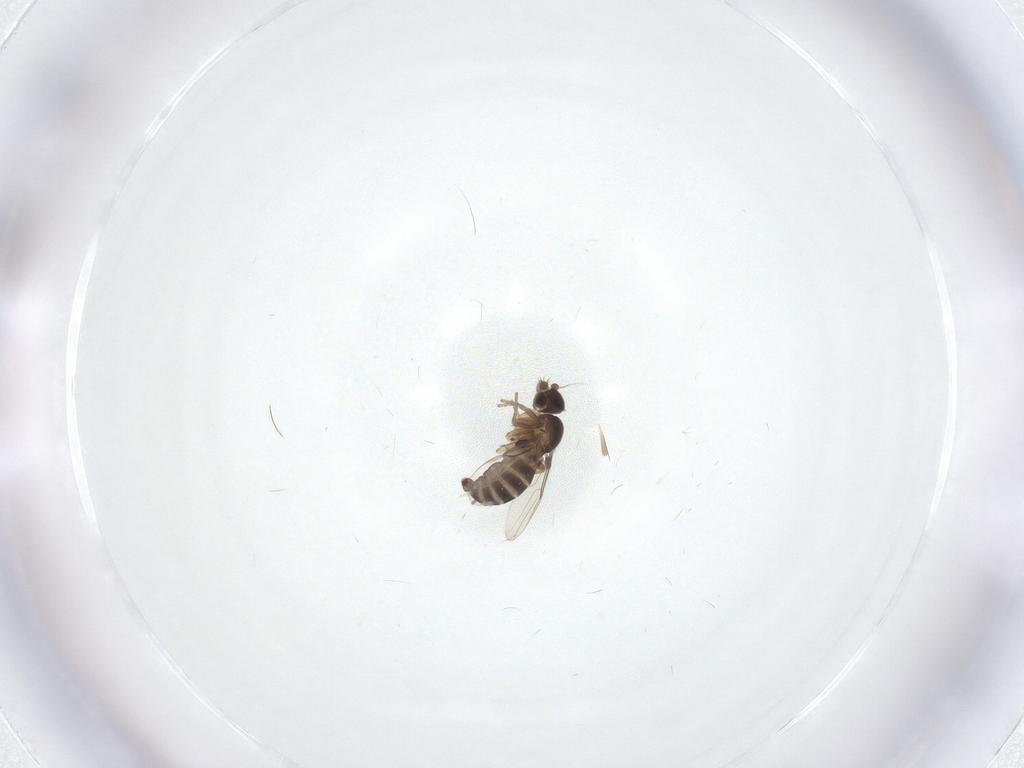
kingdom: Animalia
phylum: Arthropoda
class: Insecta
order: Diptera
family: Phoridae
